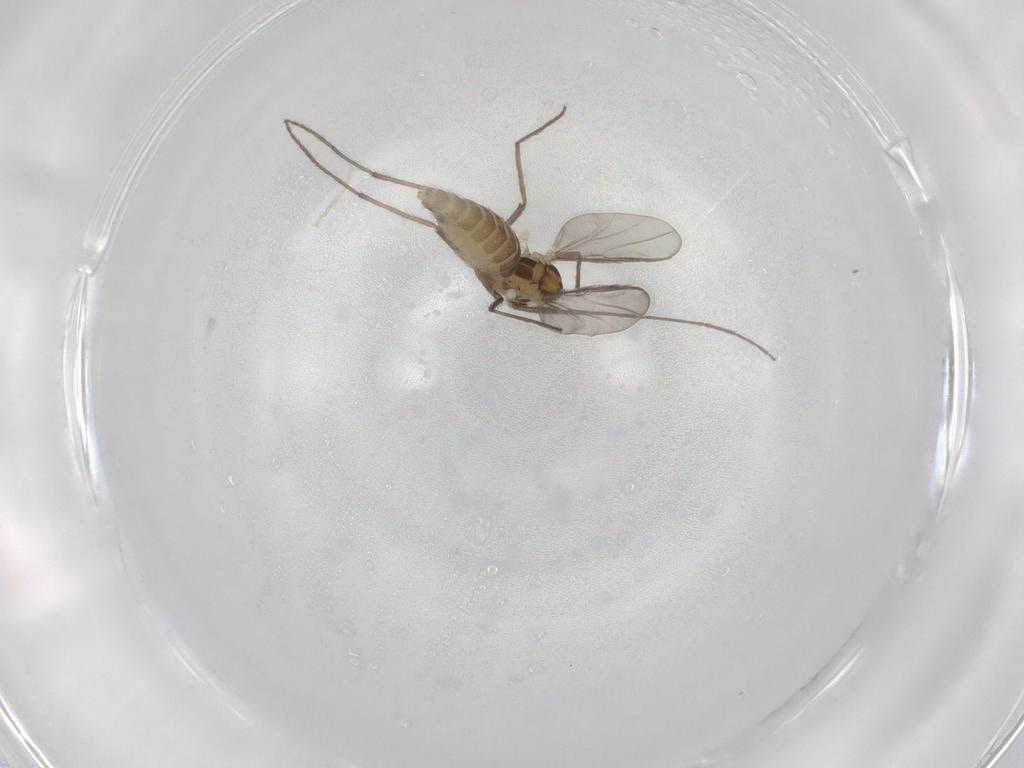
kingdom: Animalia
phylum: Arthropoda
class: Insecta
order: Diptera
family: Chironomidae
